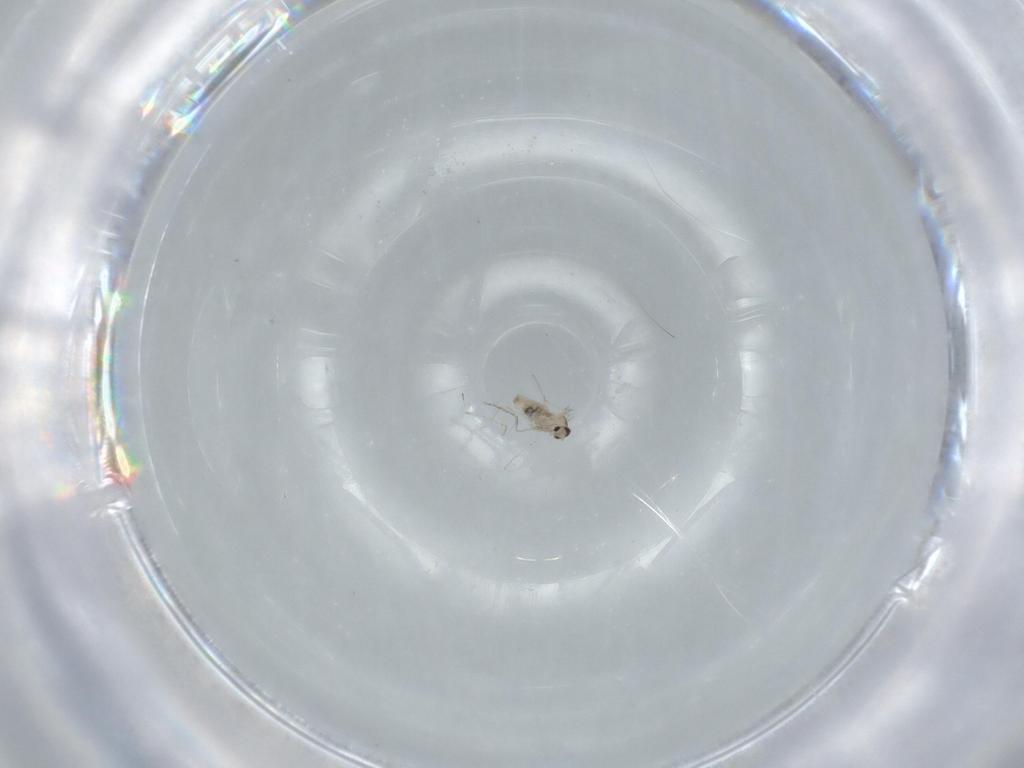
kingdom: Animalia
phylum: Arthropoda
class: Insecta
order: Diptera
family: Cecidomyiidae
